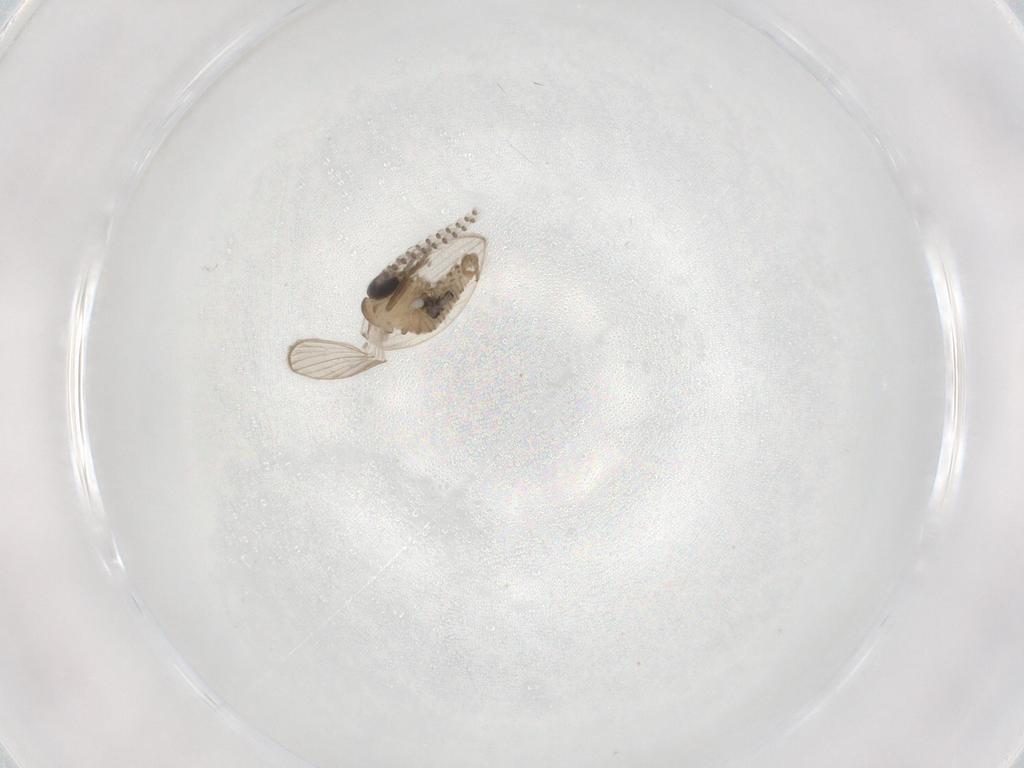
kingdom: Animalia
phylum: Arthropoda
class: Insecta
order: Diptera
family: Psychodidae
